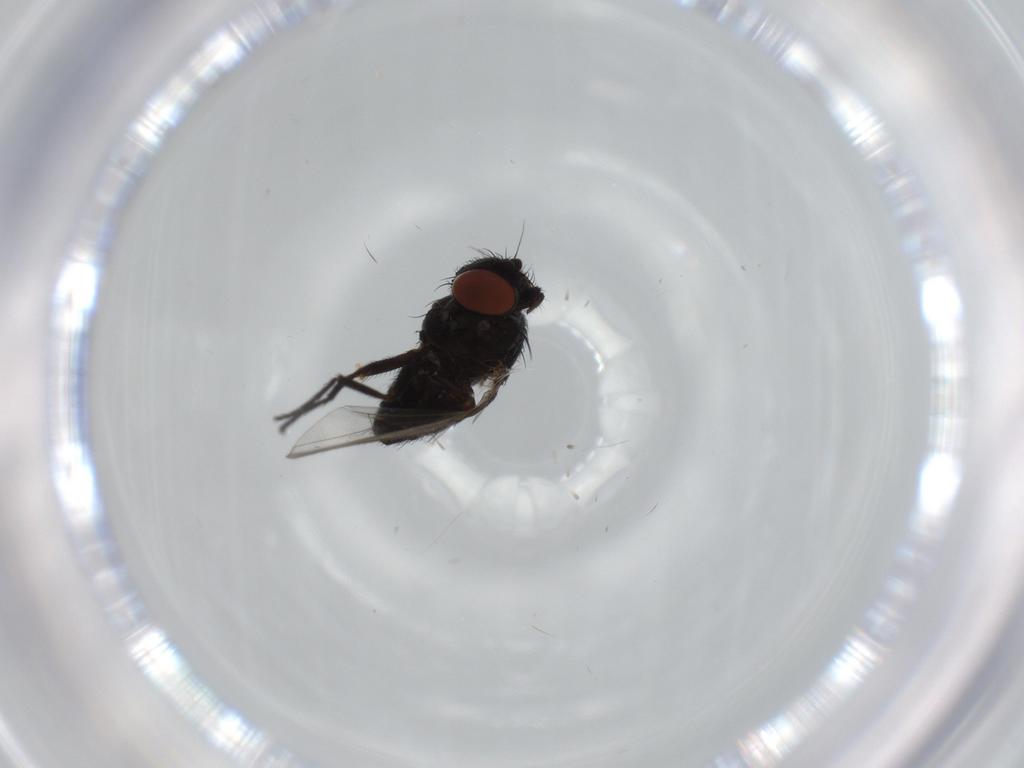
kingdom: Animalia
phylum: Arthropoda
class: Insecta
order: Diptera
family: Milichiidae
